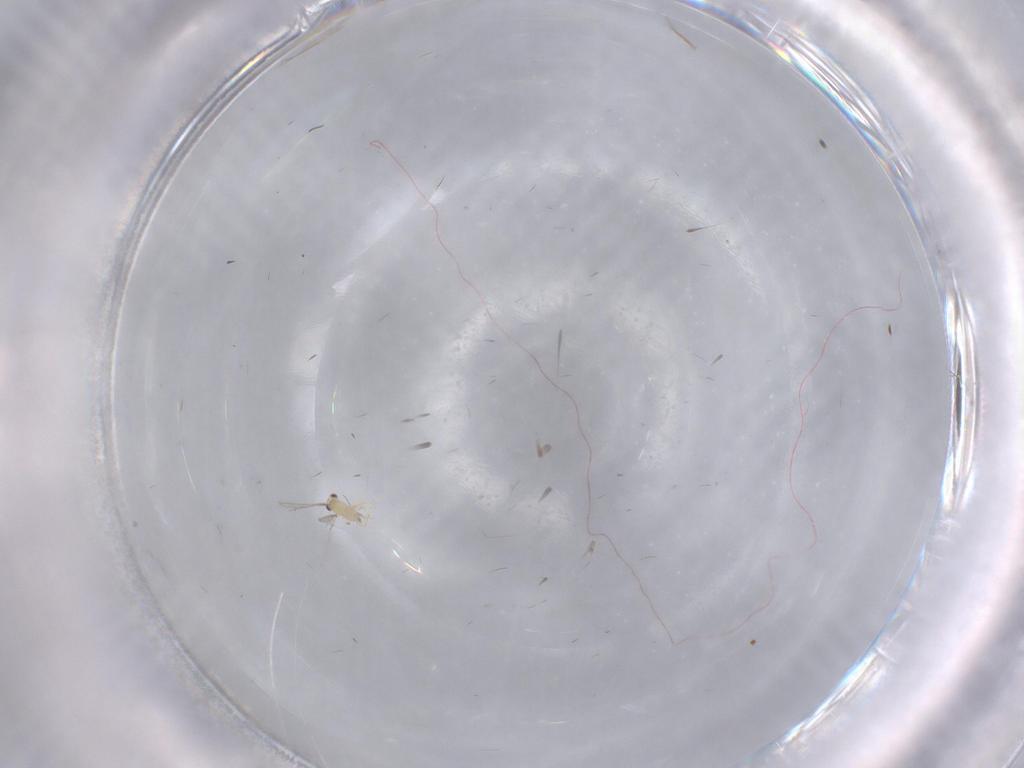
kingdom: Animalia
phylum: Arthropoda
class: Insecta
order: Hymenoptera
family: Mymaridae
